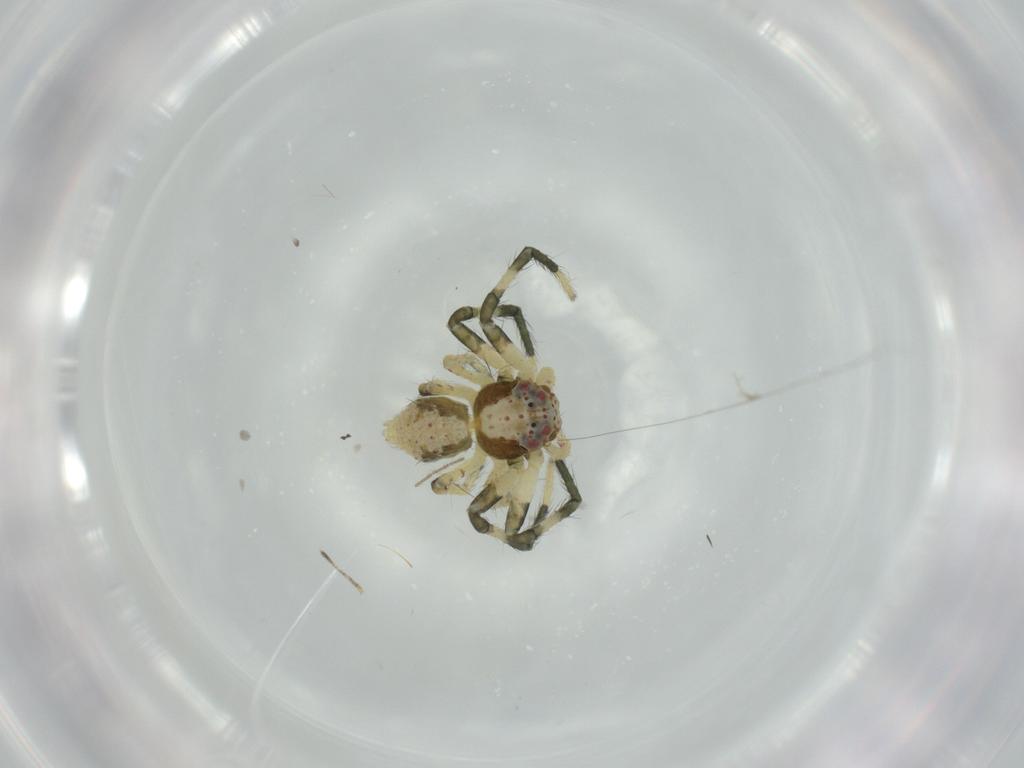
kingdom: Animalia
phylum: Arthropoda
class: Arachnida
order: Araneae
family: Thomisidae
